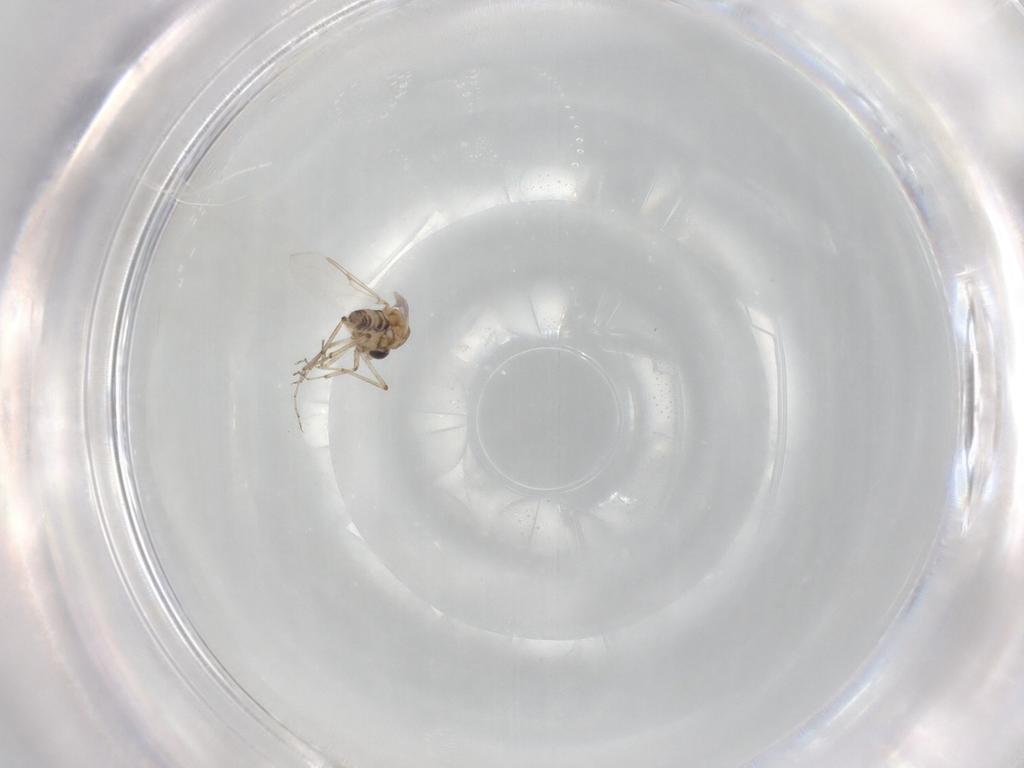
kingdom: Animalia
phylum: Arthropoda
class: Insecta
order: Diptera
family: Ceratopogonidae
